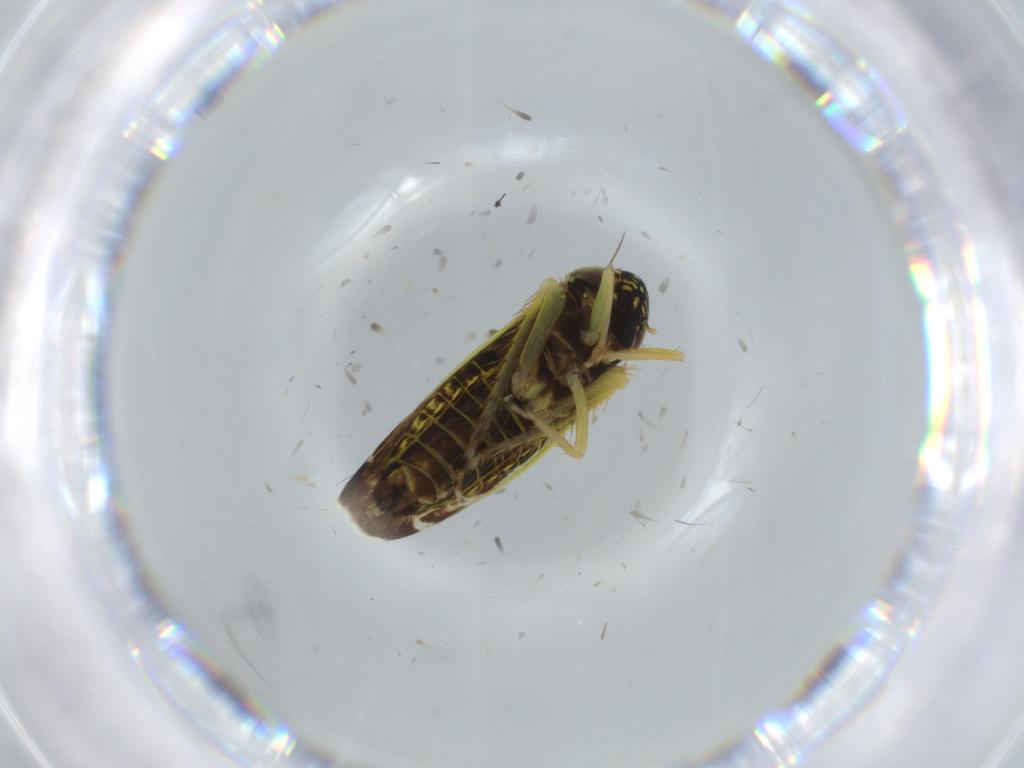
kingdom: Animalia
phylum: Arthropoda
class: Insecta
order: Hemiptera
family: Cicadellidae
